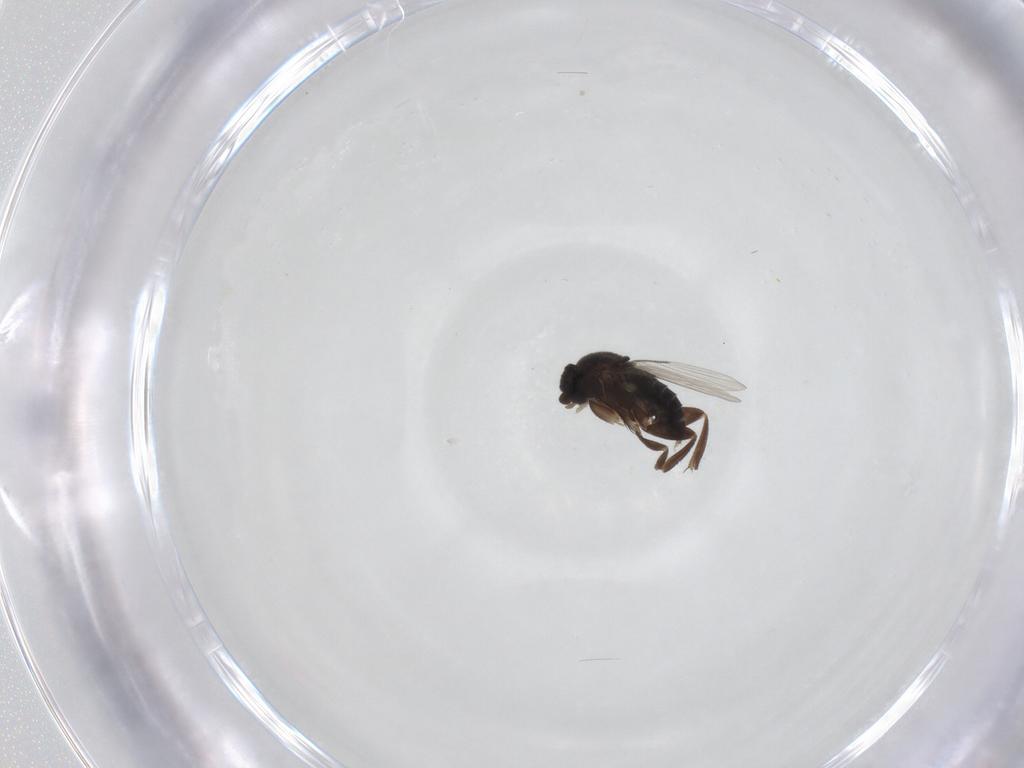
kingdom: Animalia
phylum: Arthropoda
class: Insecta
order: Diptera
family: Phoridae
